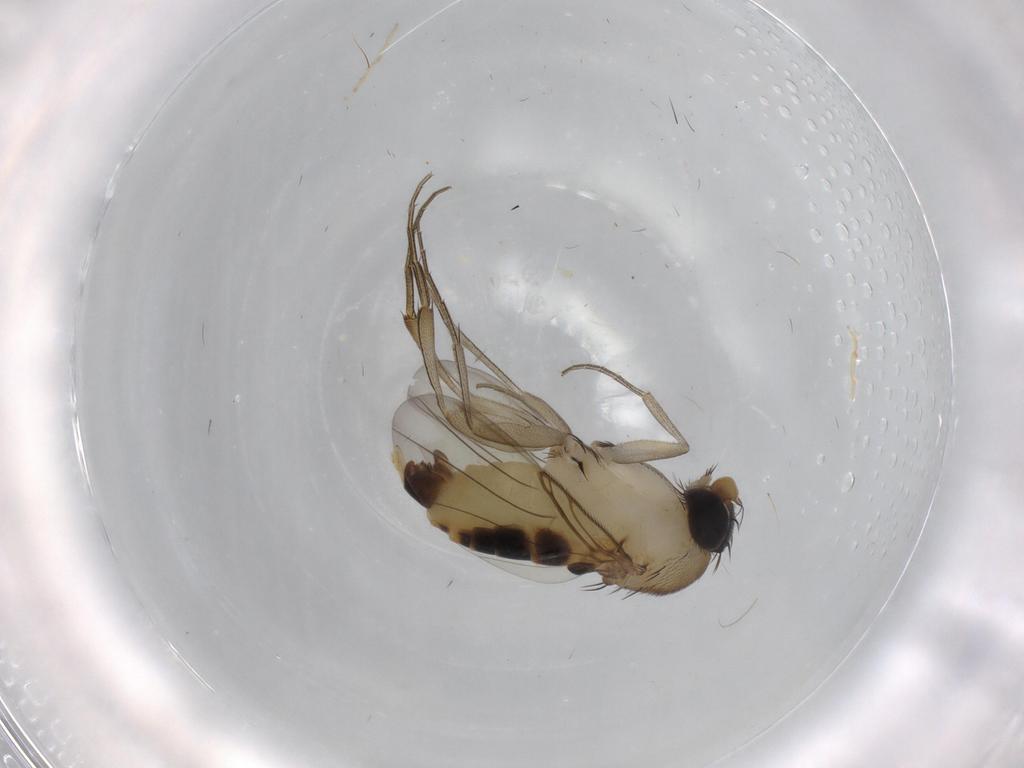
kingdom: Animalia
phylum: Arthropoda
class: Insecta
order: Diptera
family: Phoridae
